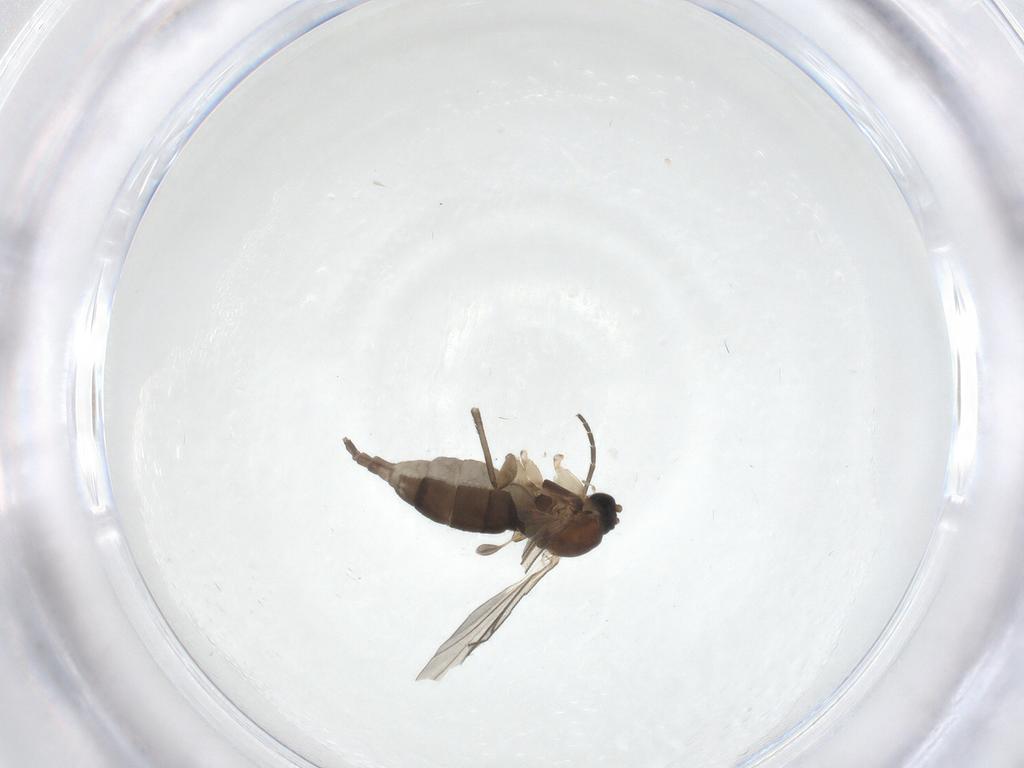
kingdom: Animalia
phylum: Arthropoda
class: Insecta
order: Diptera
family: Sciaridae
